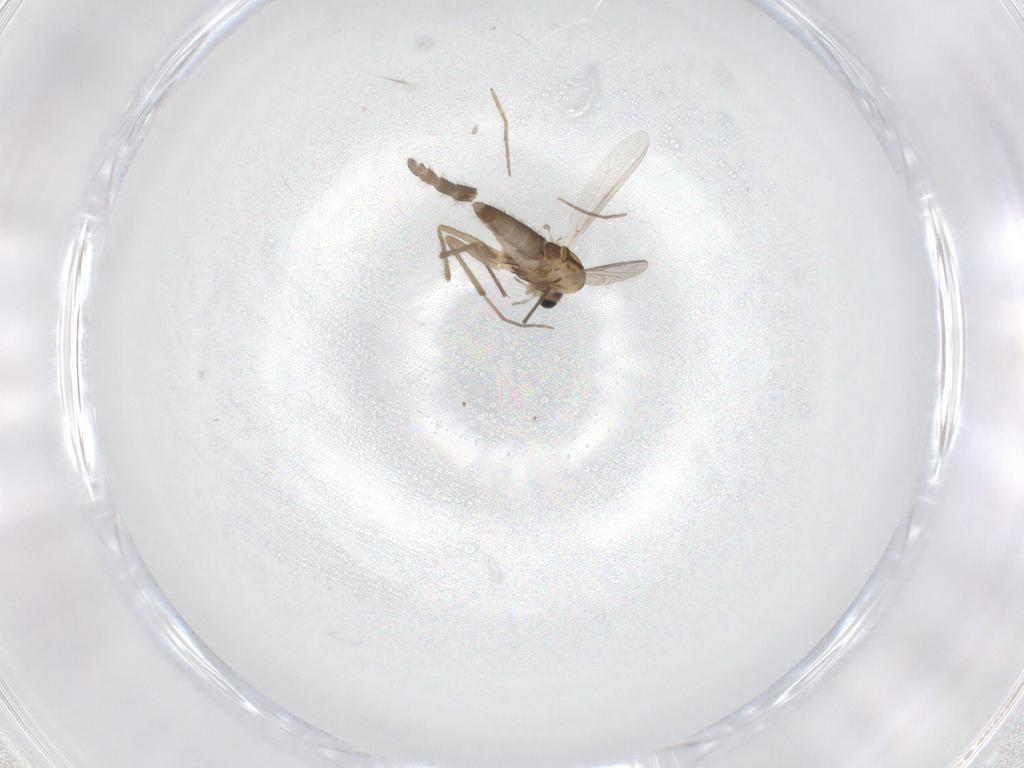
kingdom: Animalia
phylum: Arthropoda
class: Insecta
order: Diptera
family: Chironomidae
